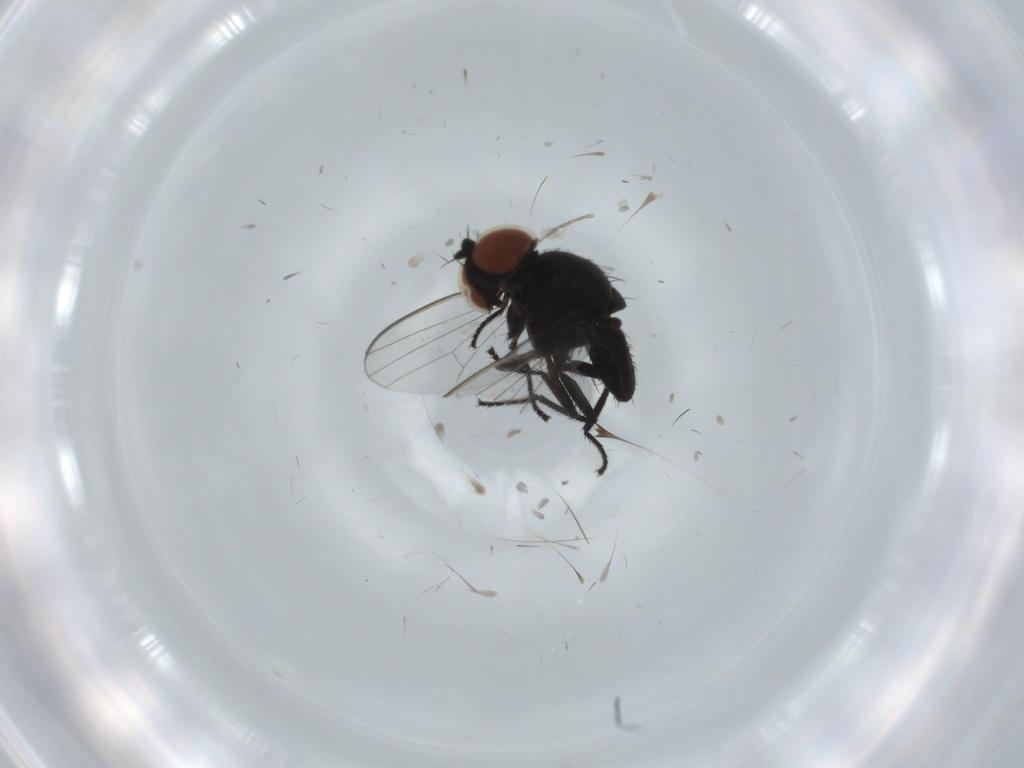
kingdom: Animalia
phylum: Arthropoda
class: Insecta
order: Diptera
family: Milichiidae
